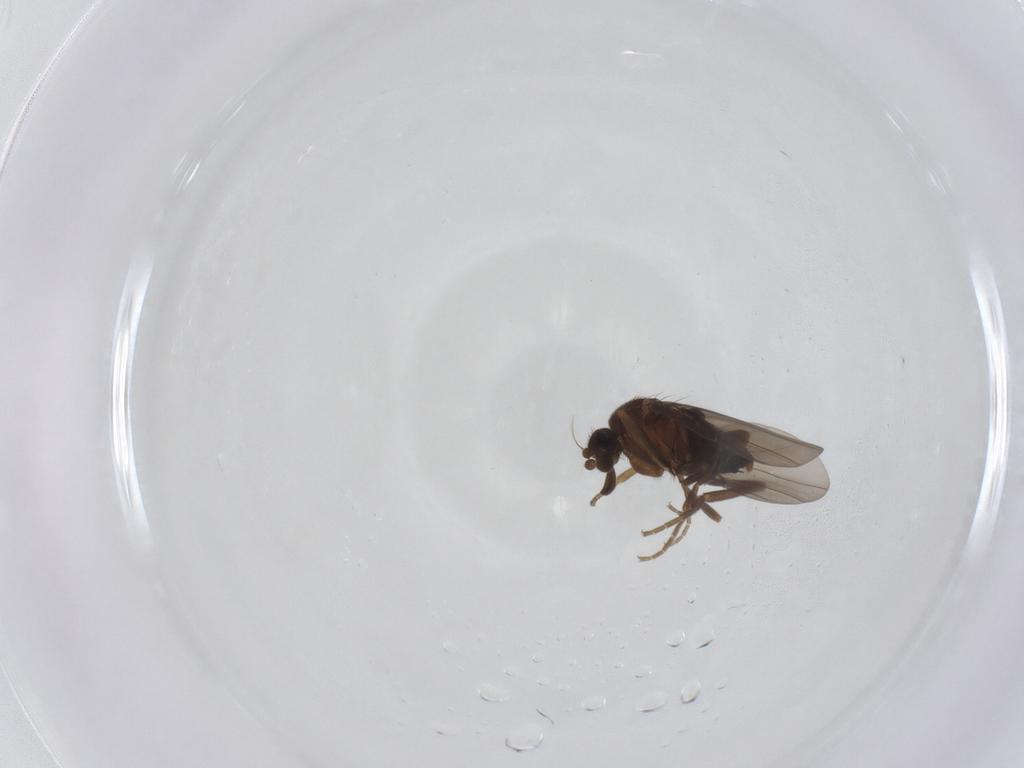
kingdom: Animalia
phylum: Arthropoda
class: Insecta
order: Diptera
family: Phoridae
